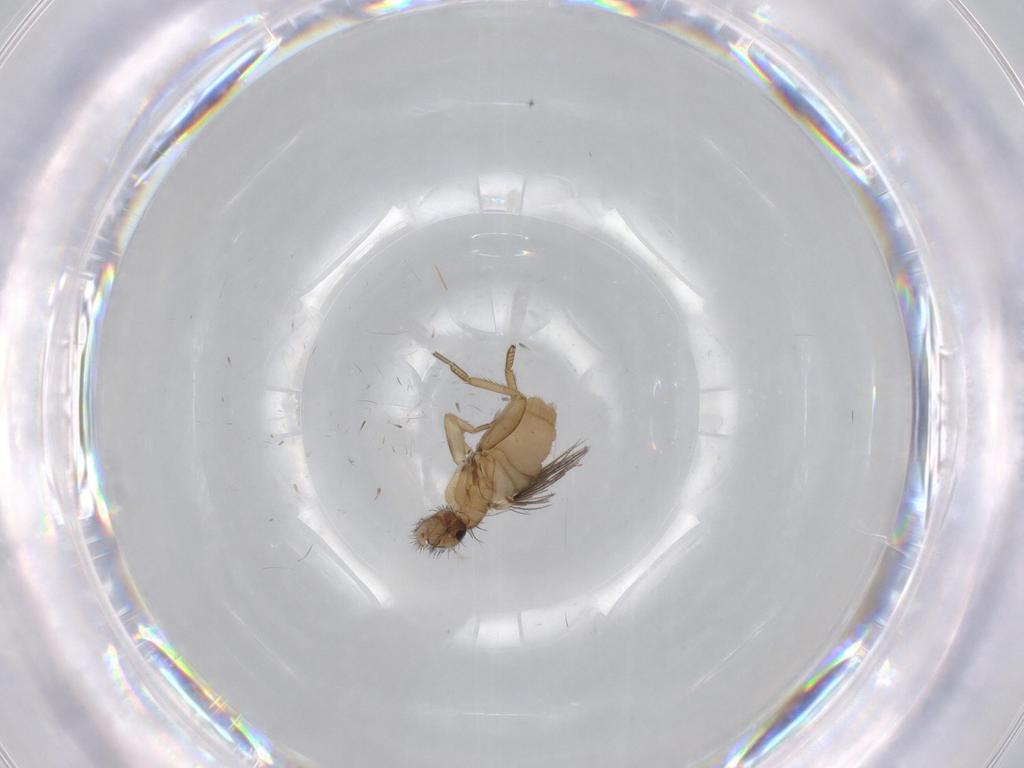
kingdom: Animalia
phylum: Arthropoda
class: Insecta
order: Diptera
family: Phoridae
